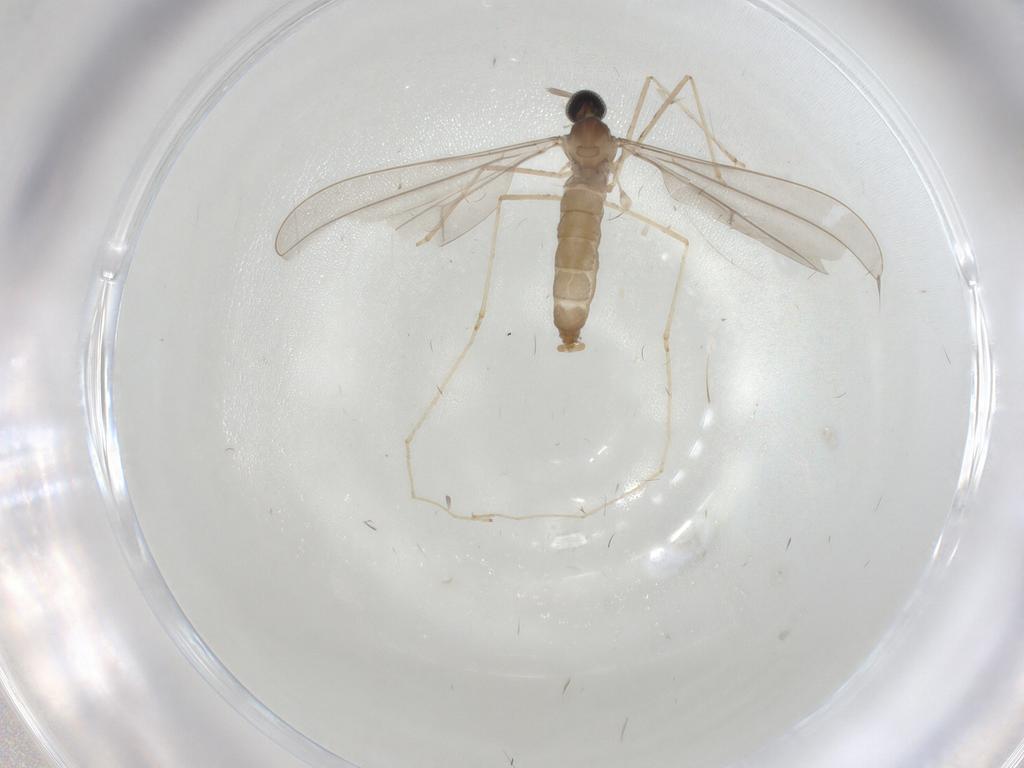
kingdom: Animalia
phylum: Arthropoda
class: Insecta
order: Diptera
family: Cecidomyiidae
